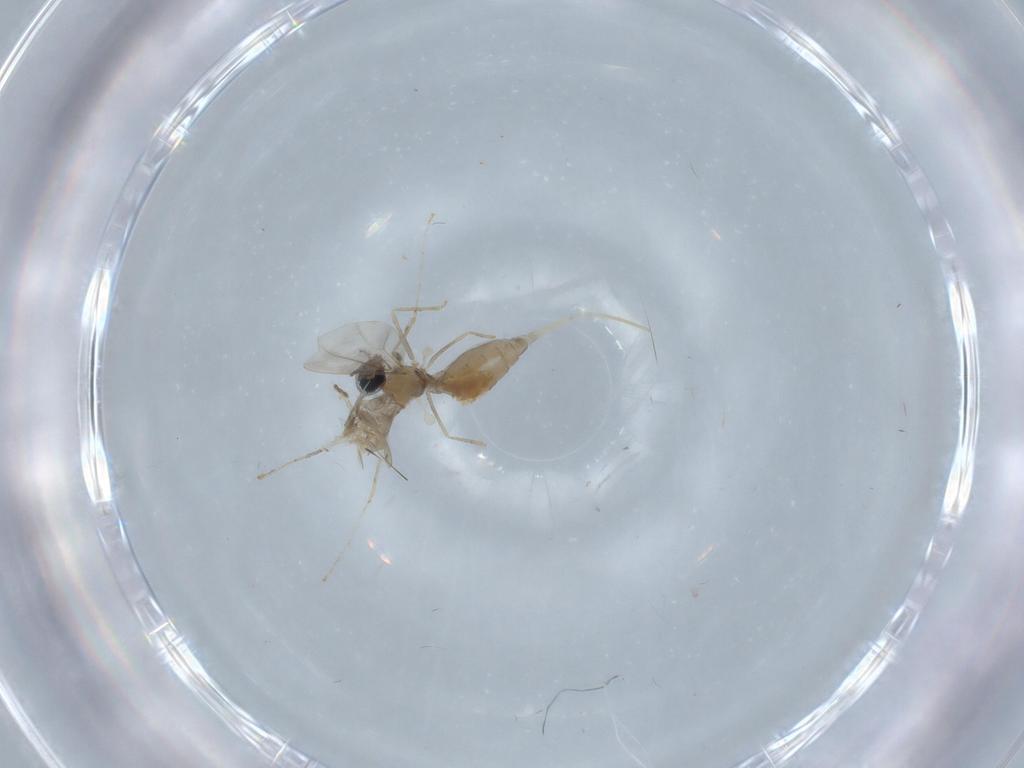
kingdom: Animalia
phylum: Arthropoda
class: Insecta
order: Diptera
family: Cecidomyiidae
